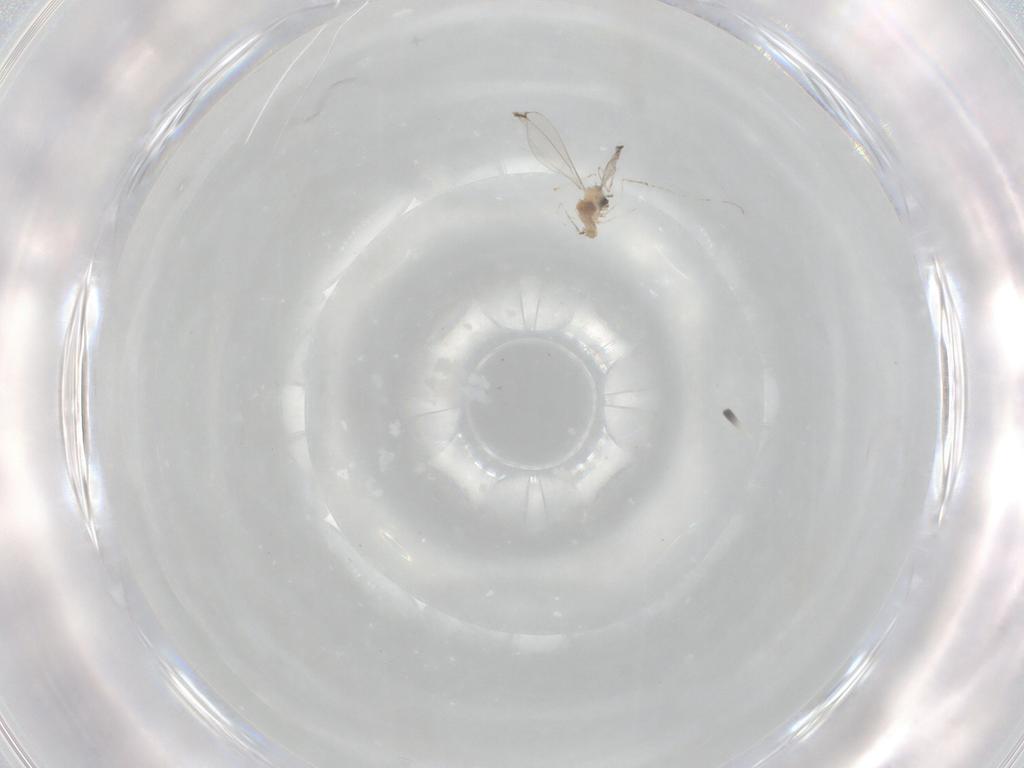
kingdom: Animalia
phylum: Arthropoda
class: Insecta
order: Diptera
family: Cecidomyiidae
